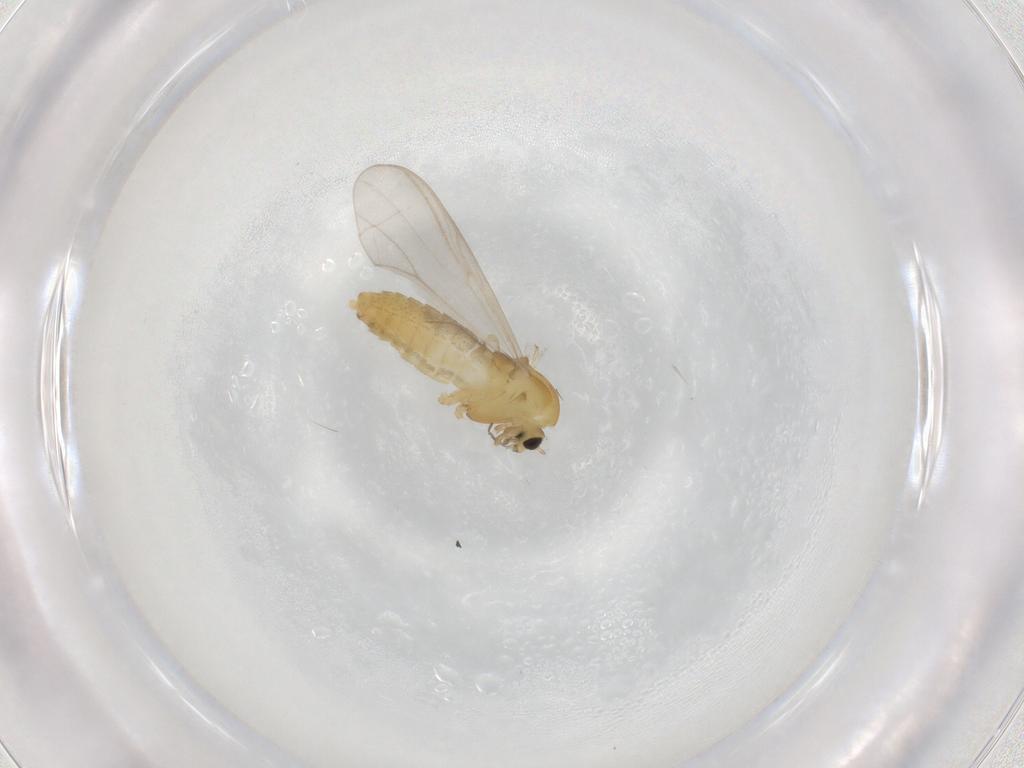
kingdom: Animalia
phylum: Arthropoda
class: Insecta
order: Diptera
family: Chironomidae
